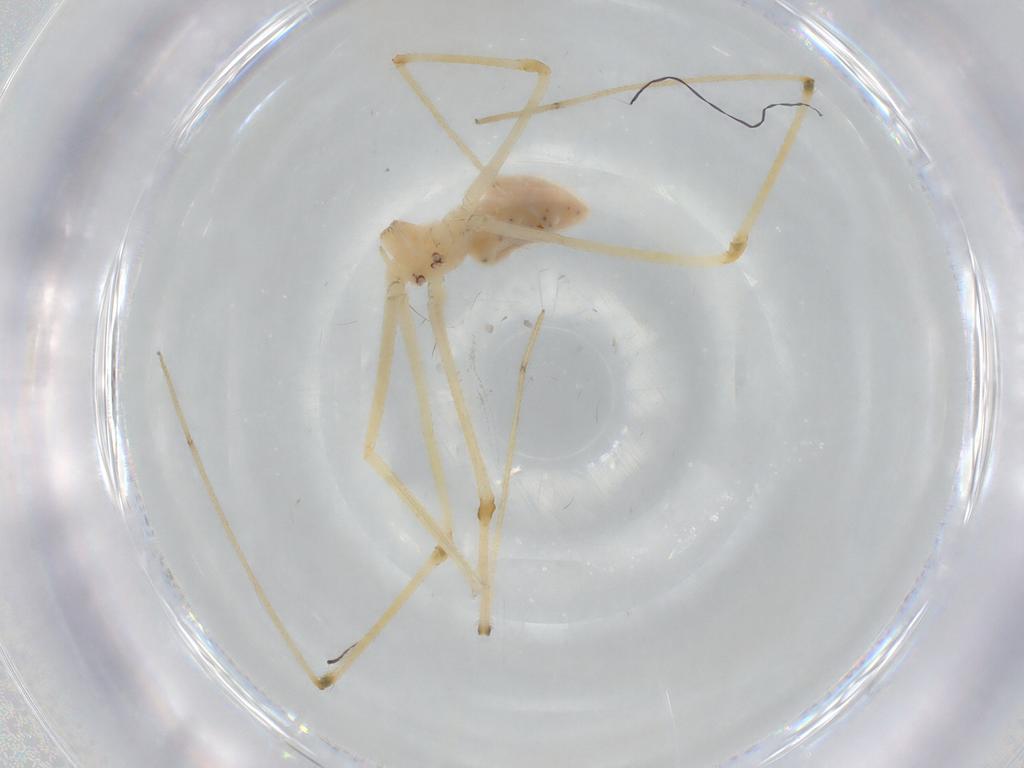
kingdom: Animalia
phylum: Arthropoda
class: Arachnida
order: Araneae
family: Pholcidae
